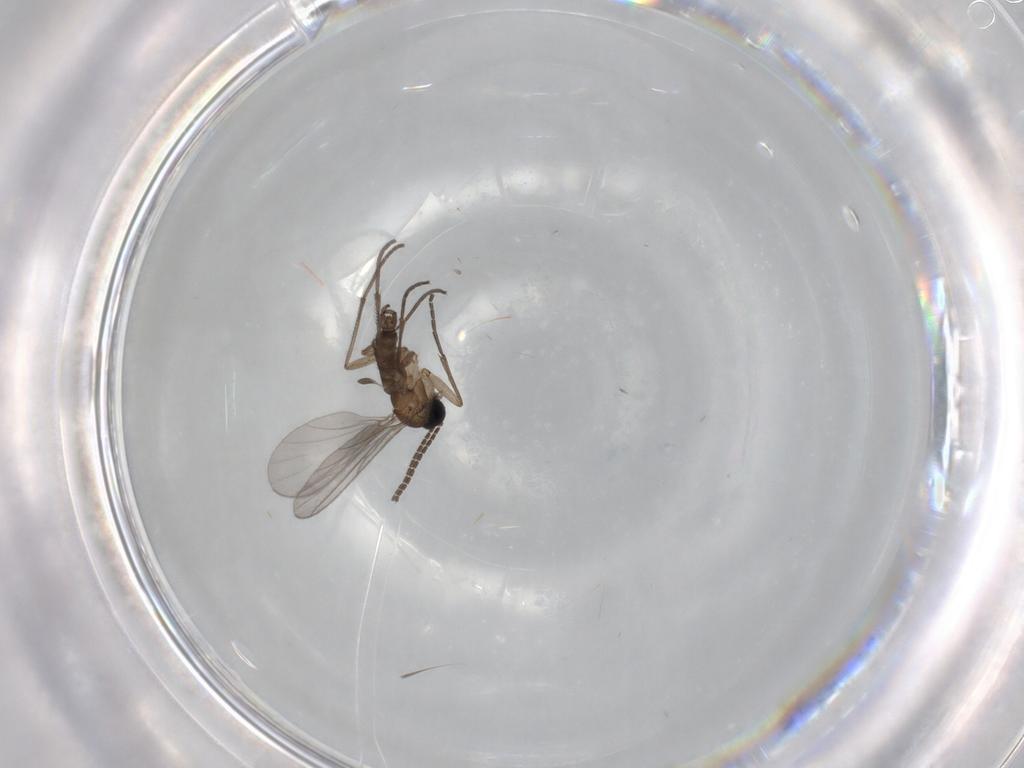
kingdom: Animalia
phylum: Arthropoda
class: Insecta
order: Diptera
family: Sciaridae
